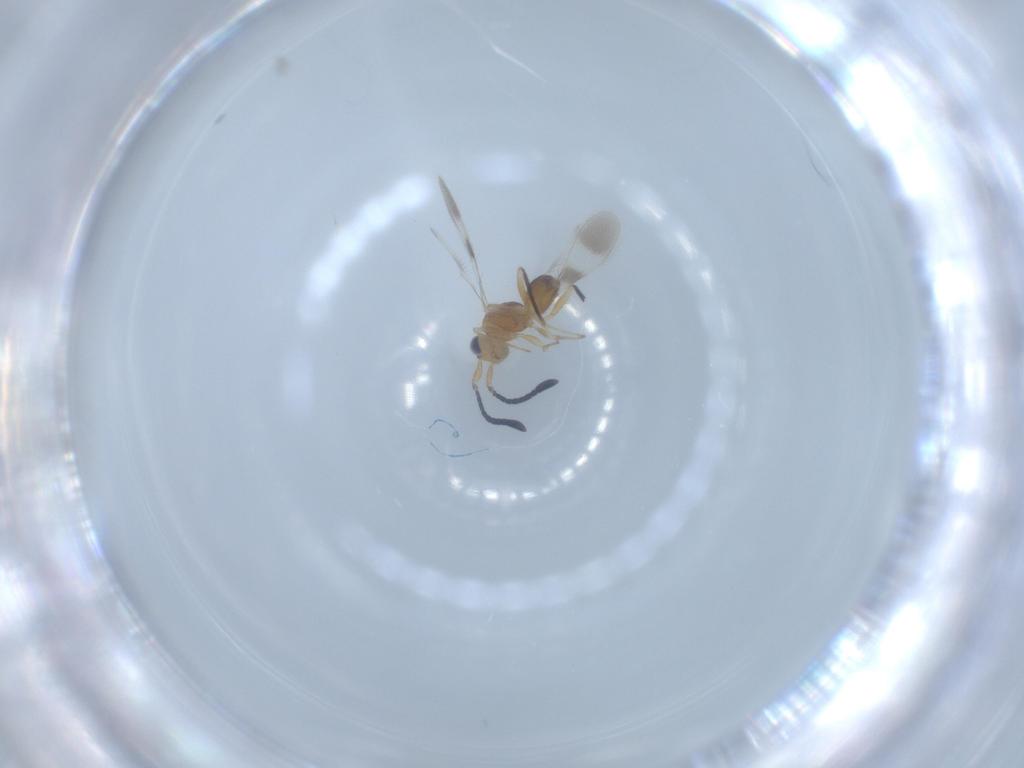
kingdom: Animalia
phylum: Arthropoda
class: Insecta
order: Hymenoptera
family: Mymaridae
